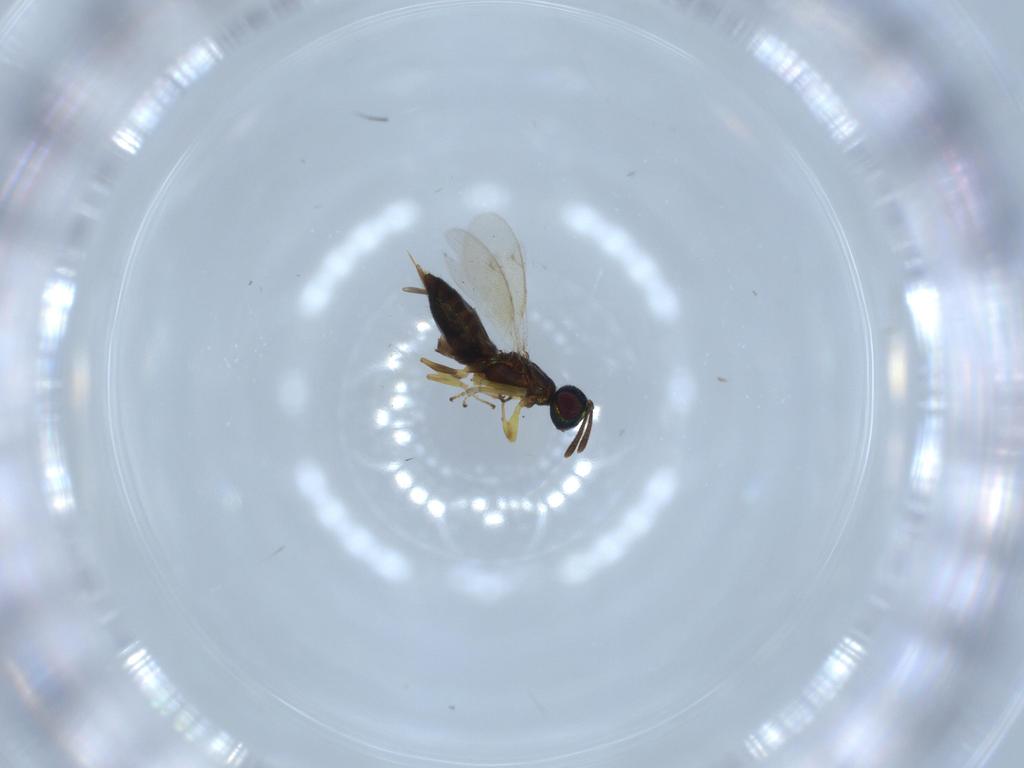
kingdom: Animalia
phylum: Arthropoda
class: Insecta
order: Hymenoptera
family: Eupelmidae
